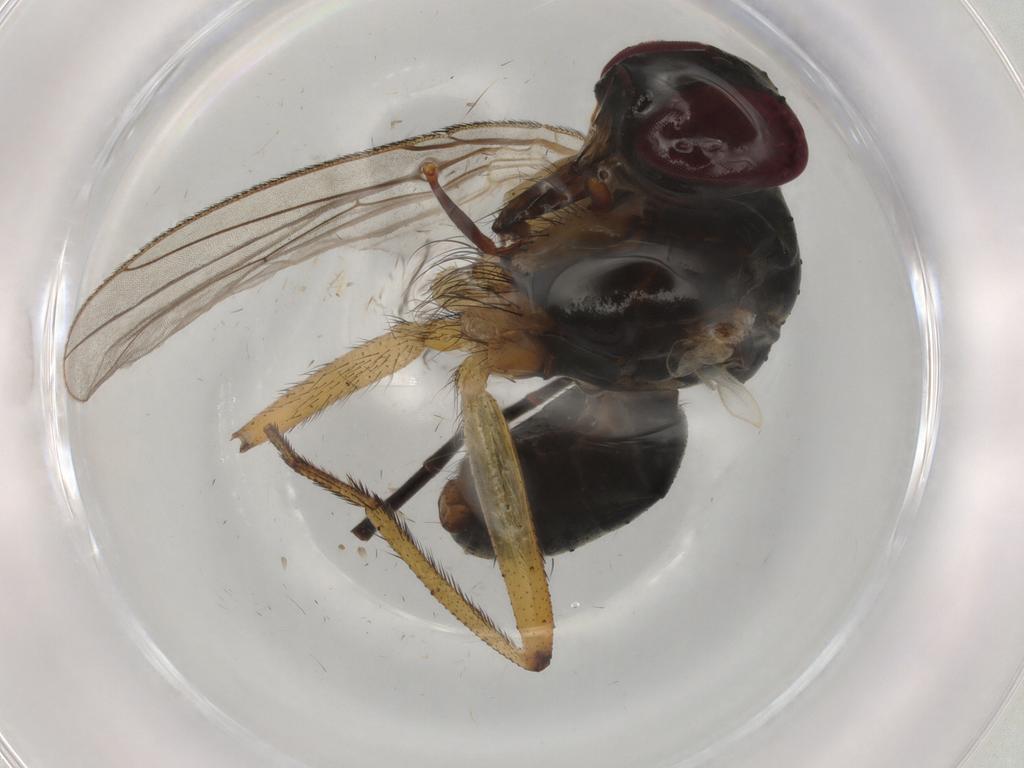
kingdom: Animalia
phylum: Arthropoda
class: Insecta
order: Diptera
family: Muscidae
